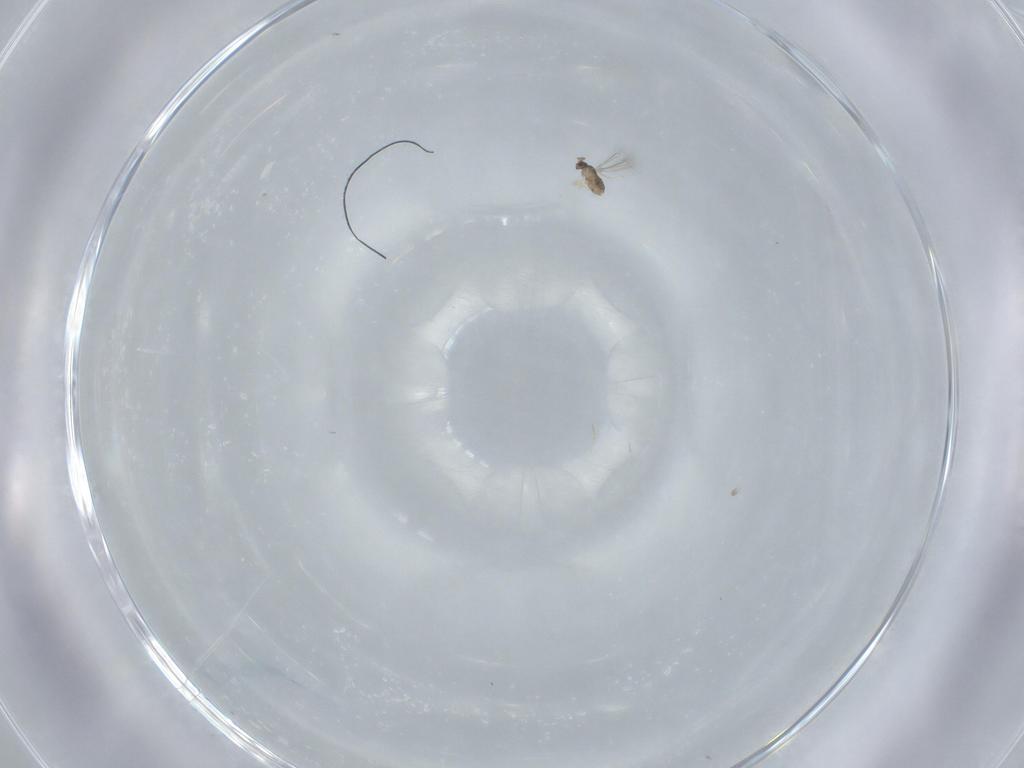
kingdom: Animalia
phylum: Arthropoda
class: Insecta
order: Hymenoptera
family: Mymaridae
